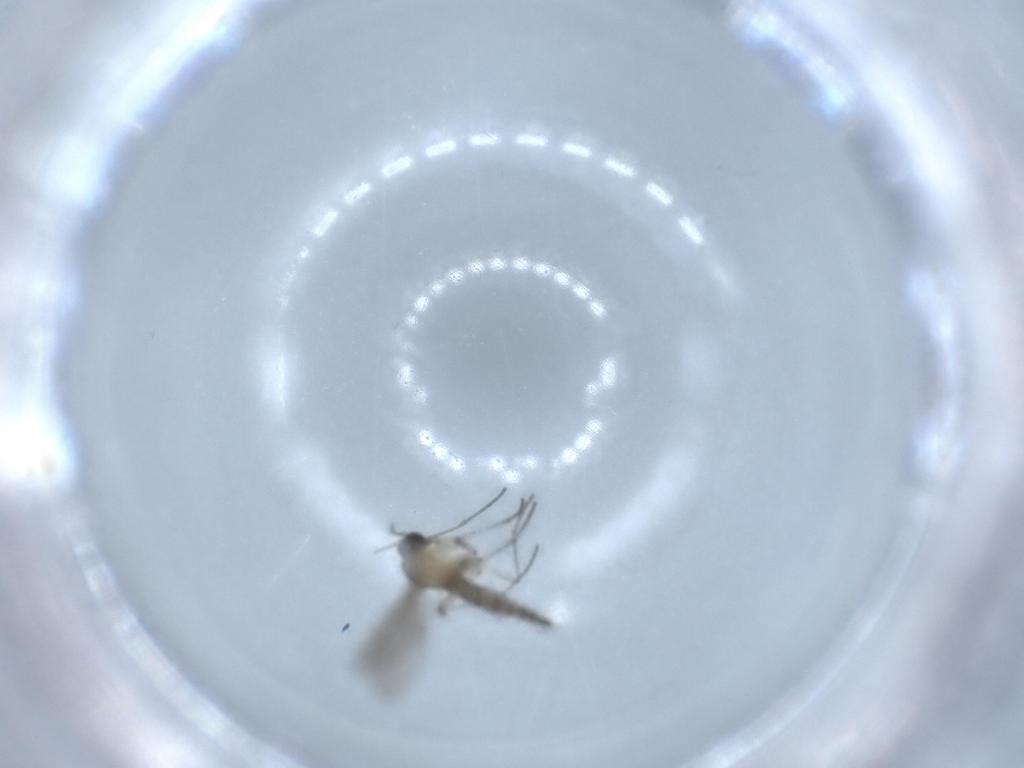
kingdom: Animalia
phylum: Arthropoda
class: Insecta
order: Diptera
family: Sciaridae
